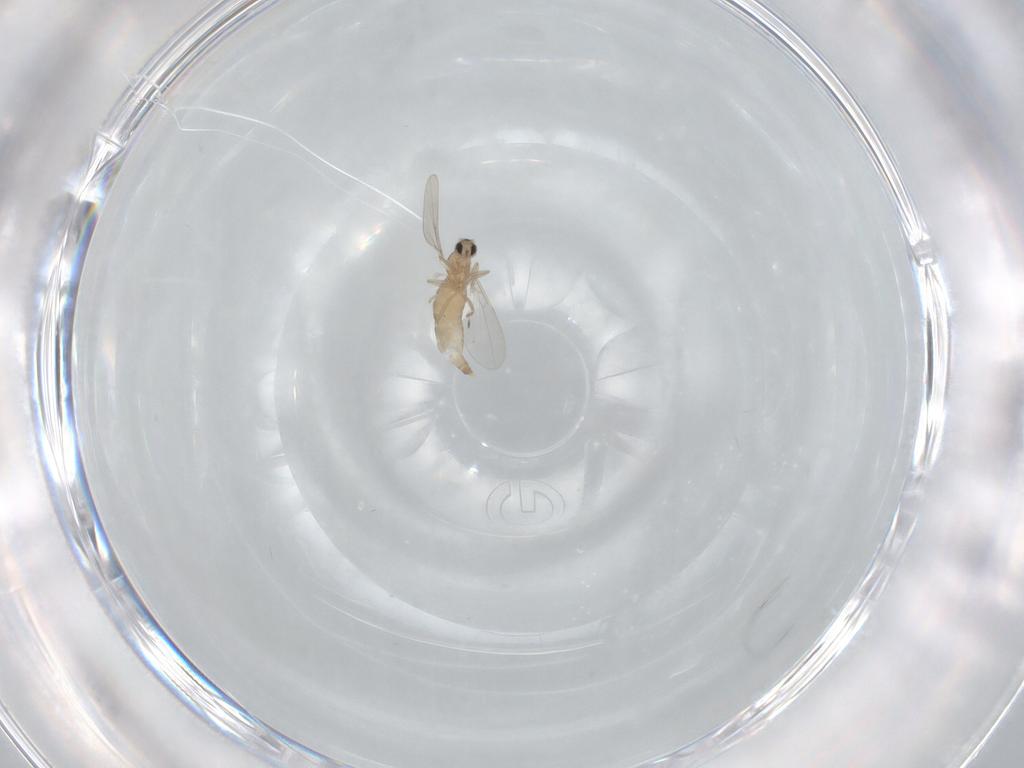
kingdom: Animalia
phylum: Arthropoda
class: Insecta
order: Diptera
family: Cecidomyiidae
